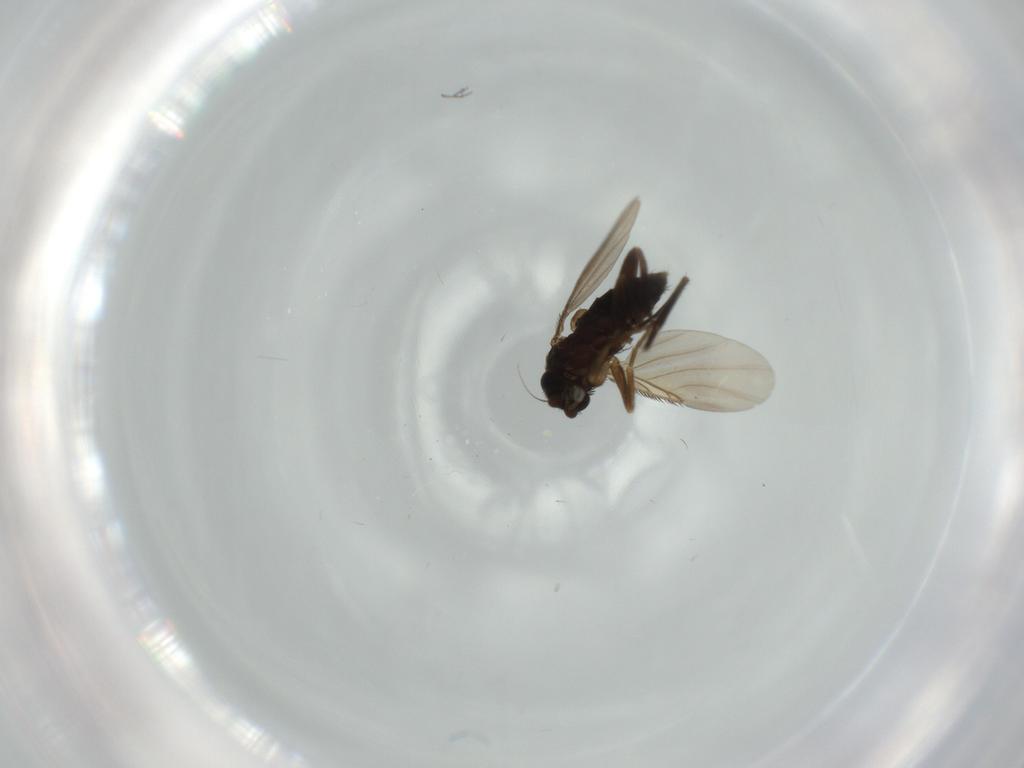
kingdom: Animalia
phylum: Arthropoda
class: Insecta
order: Diptera
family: Phoridae
